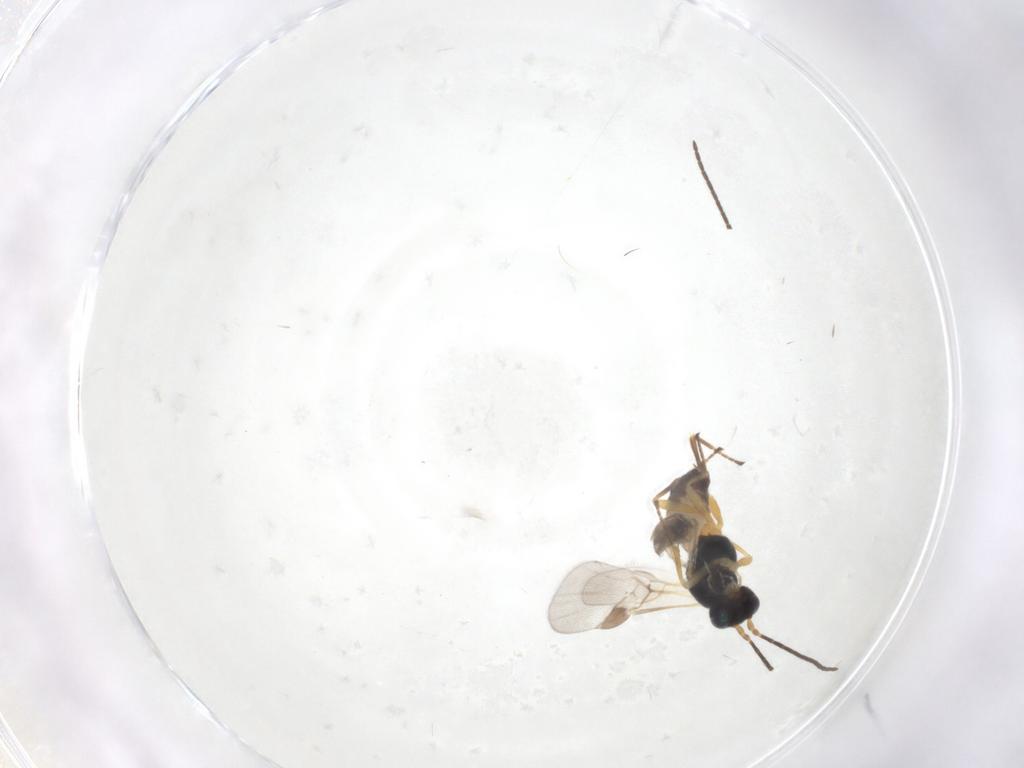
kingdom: Animalia
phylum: Arthropoda
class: Insecta
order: Hymenoptera
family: Braconidae
